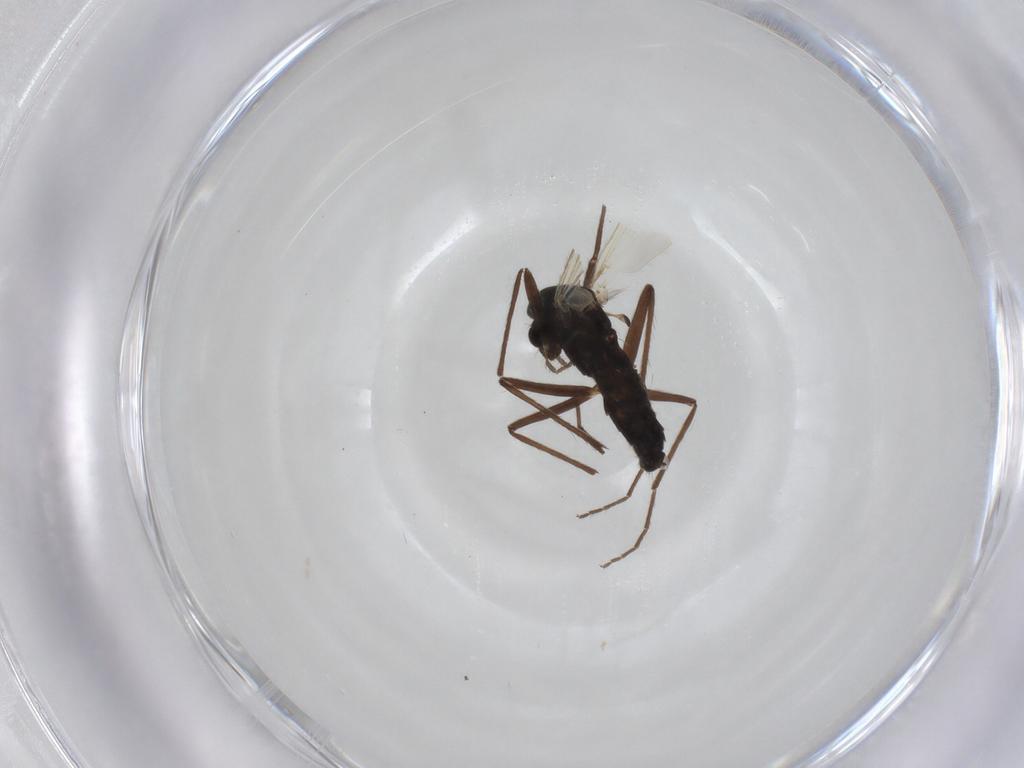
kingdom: Animalia
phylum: Arthropoda
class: Insecta
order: Diptera
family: Chironomidae
